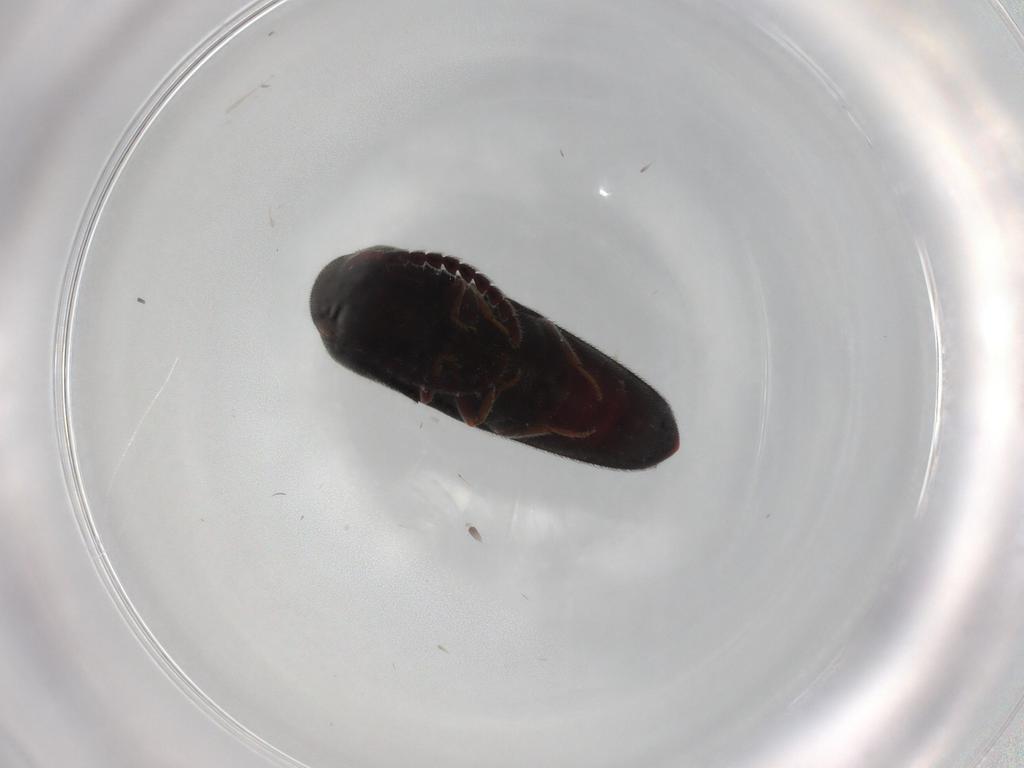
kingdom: Animalia
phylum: Arthropoda
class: Insecta
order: Coleoptera
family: Eucnemidae
